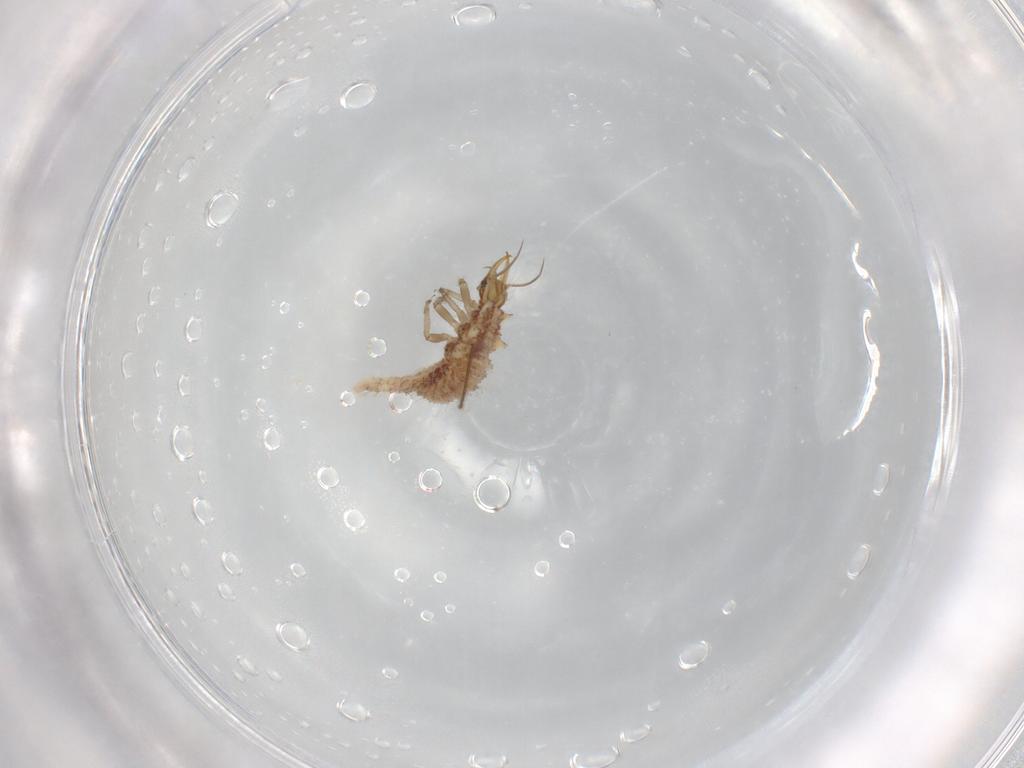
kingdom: Animalia
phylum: Arthropoda
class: Insecta
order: Neuroptera
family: Chrysopidae
